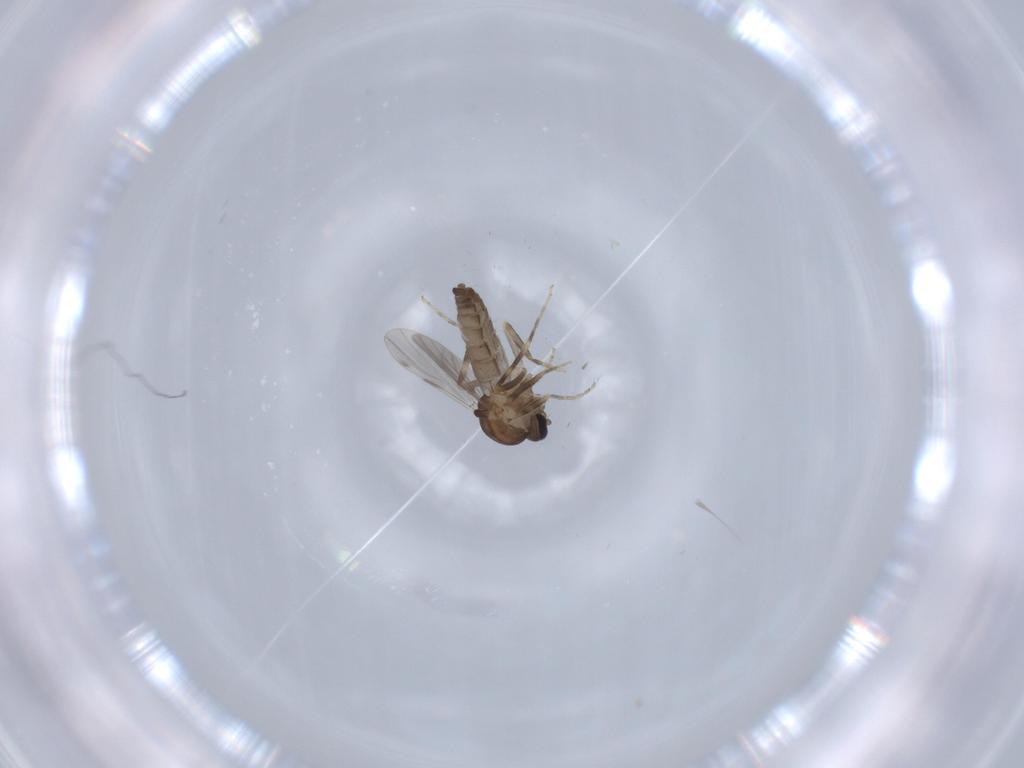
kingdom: Animalia
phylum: Arthropoda
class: Insecta
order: Diptera
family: Ceratopogonidae
